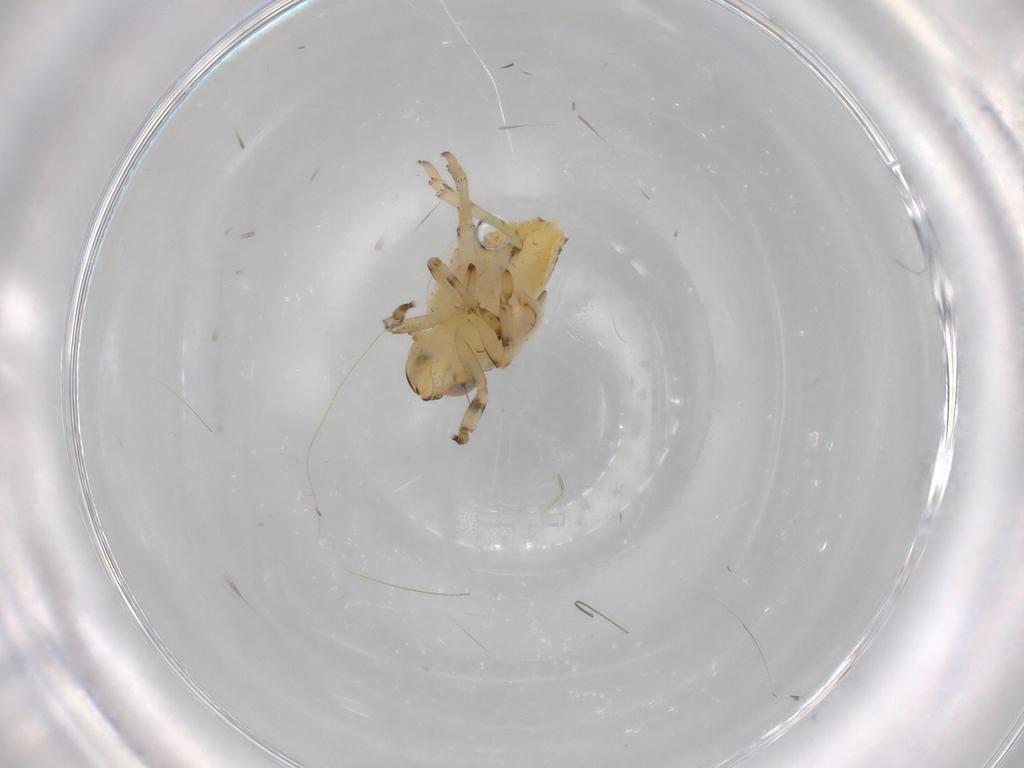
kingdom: Animalia
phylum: Arthropoda
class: Insecta
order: Hemiptera
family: Issidae
